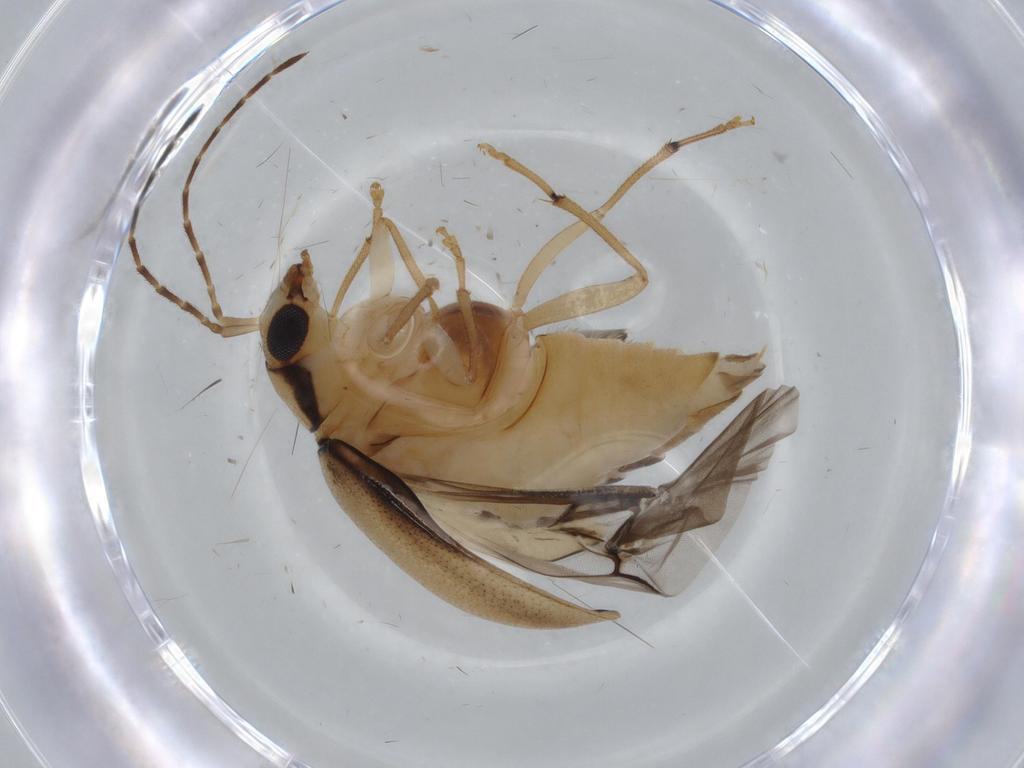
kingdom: Animalia
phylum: Arthropoda
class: Insecta
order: Coleoptera
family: Chrysomelidae
